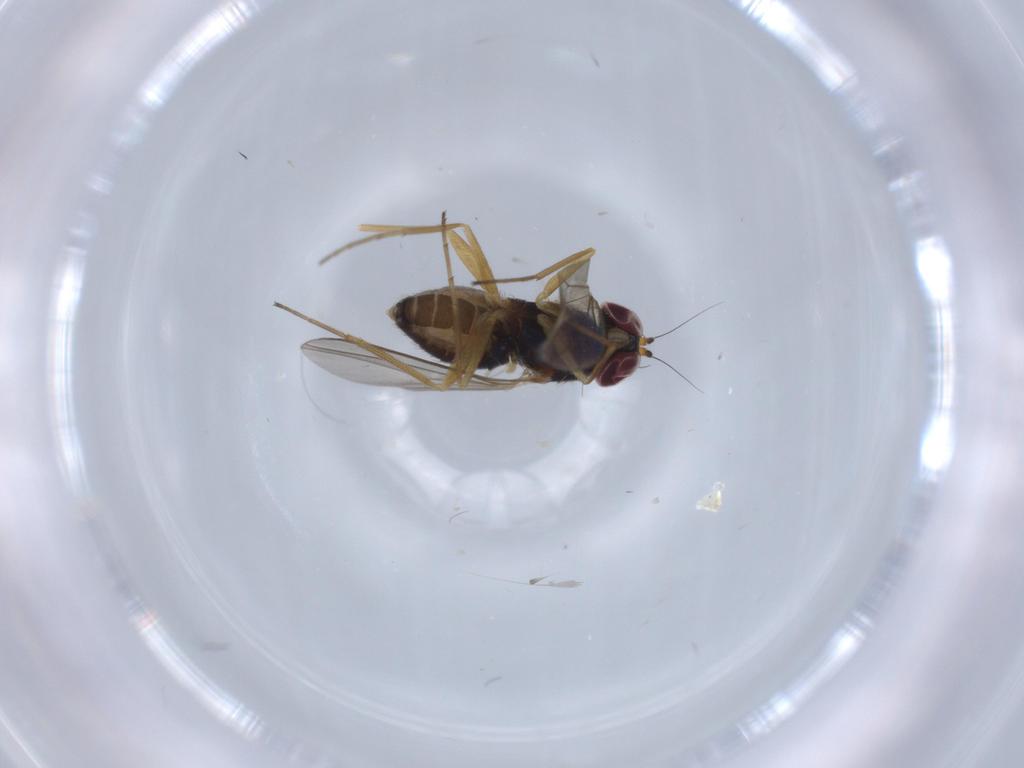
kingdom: Animalia
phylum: Arthropoda
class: Insecta
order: Diptera
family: Dolichopodidae
